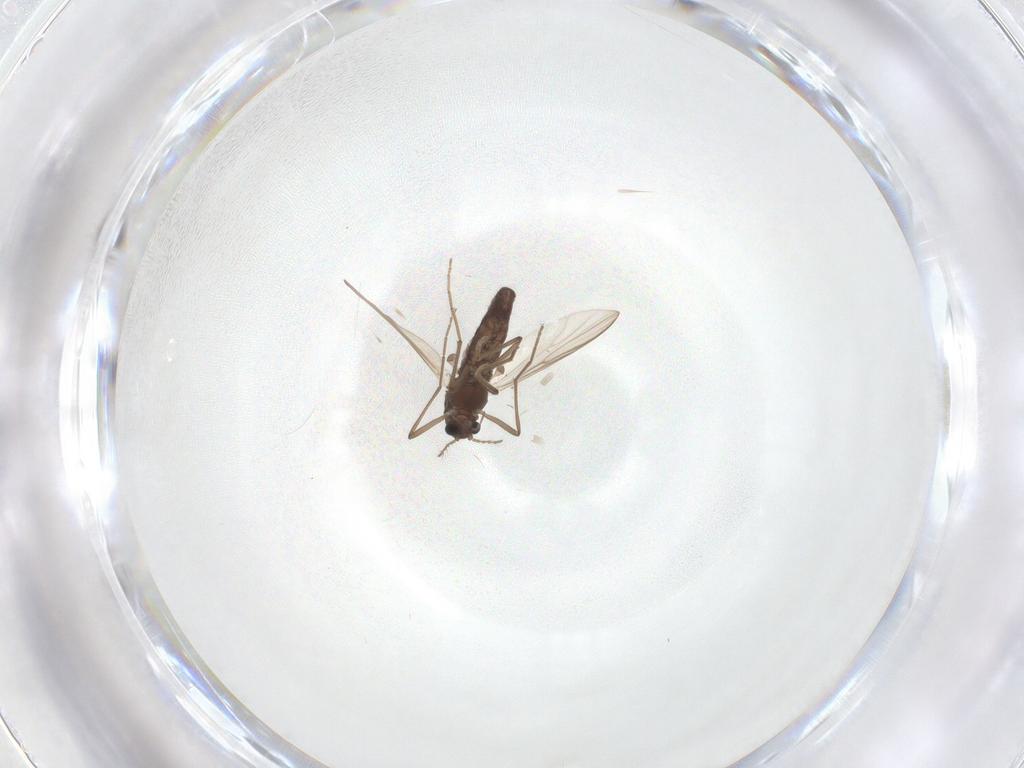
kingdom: Animalia
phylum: Arthropoda
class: Insecta
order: Diptera
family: Chironomidae
